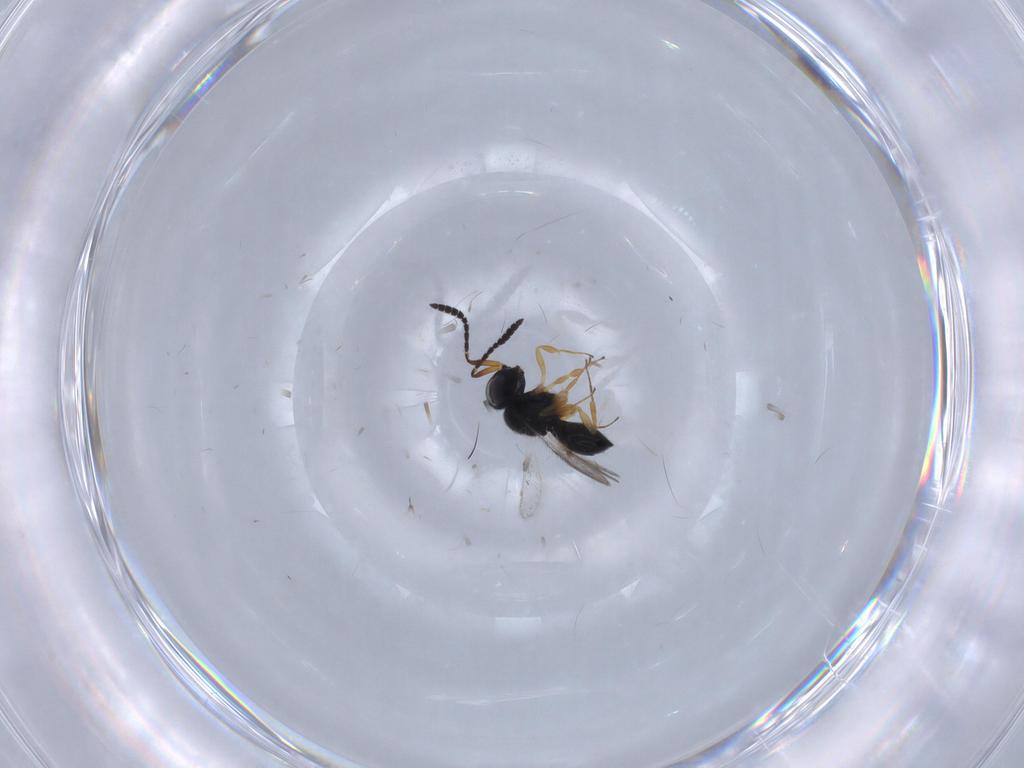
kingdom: Animalia
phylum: Arthropoda
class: Insecta
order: Hymenoptera
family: Scelionidae
